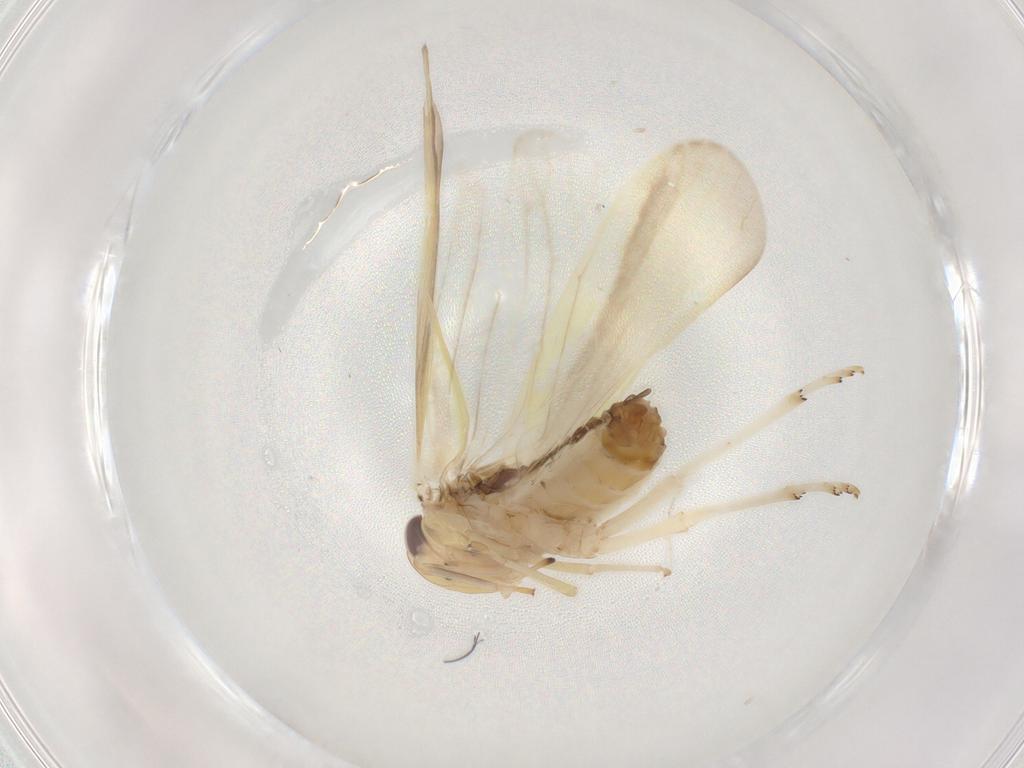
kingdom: Animalia
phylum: Arthropoda
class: Insecta
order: Hemiptera
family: Achilidae
